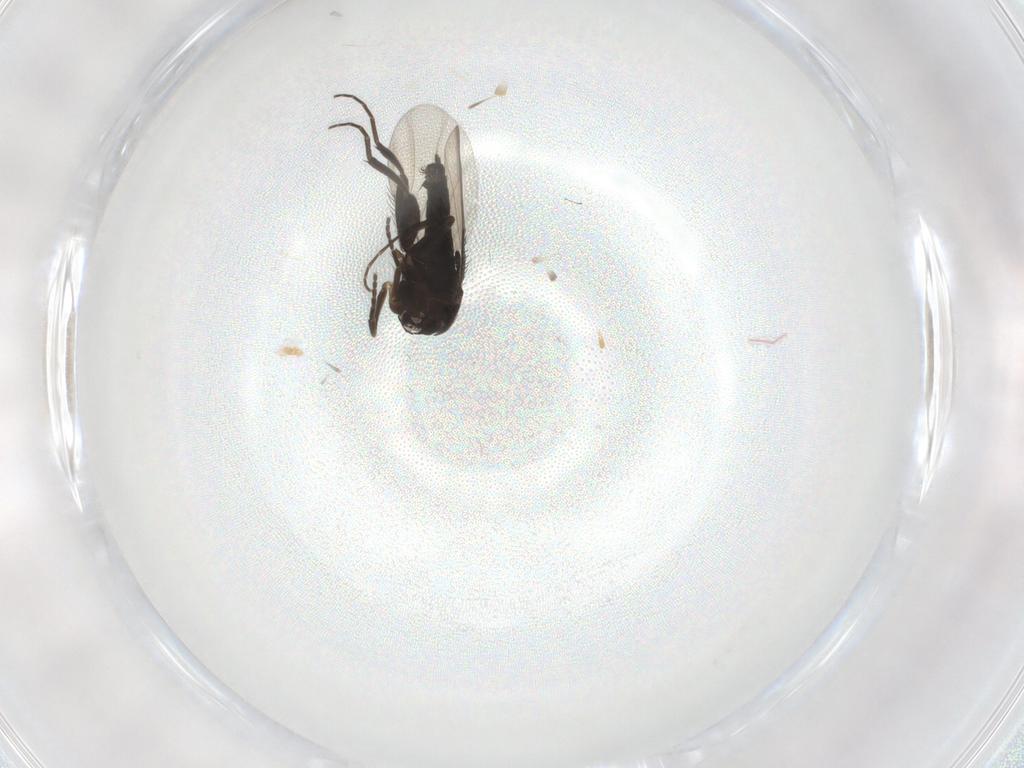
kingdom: Animalia
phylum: Arthropoda
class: Insecta
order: Diptera
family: Phoridae
